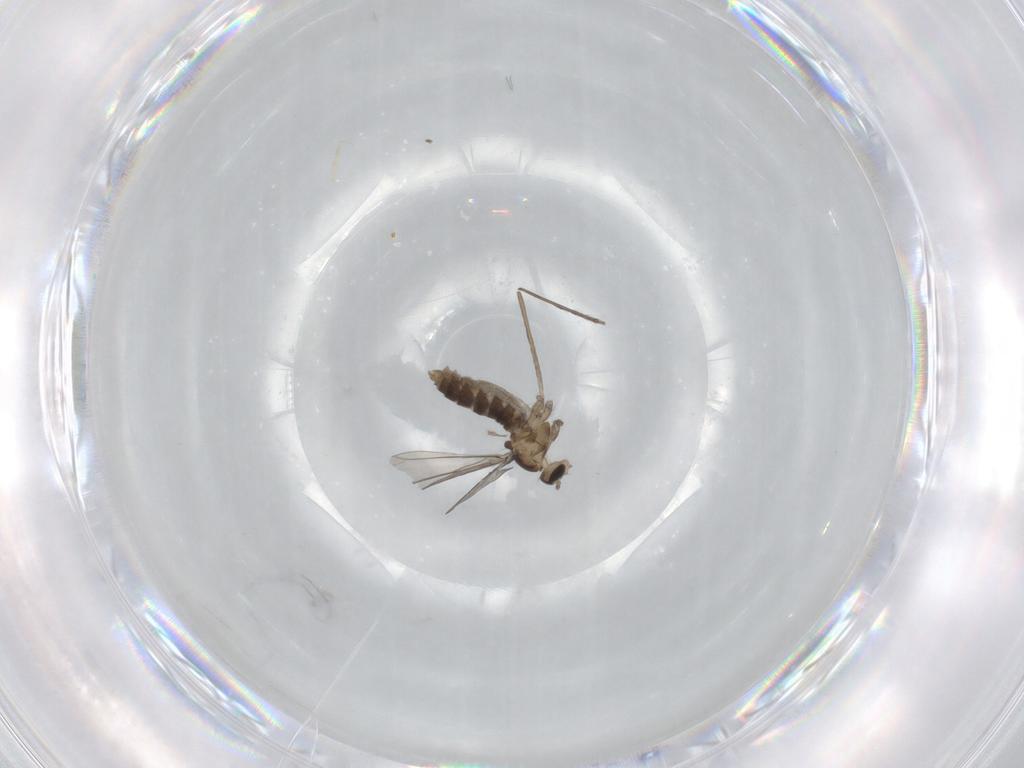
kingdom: Animalia
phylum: Arthropoda
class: Insecta
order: Diptera
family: Cecidomyiidae
